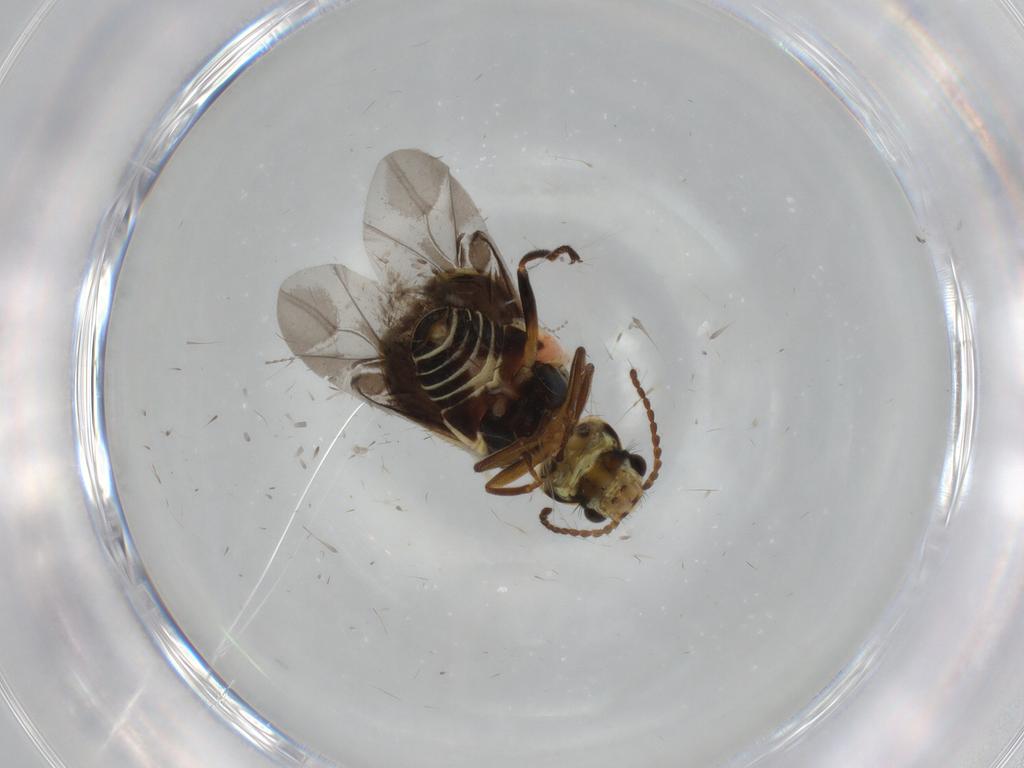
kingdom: Animalia
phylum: Arthropoda
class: Insecta
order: Coleoptera
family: Melyridae
